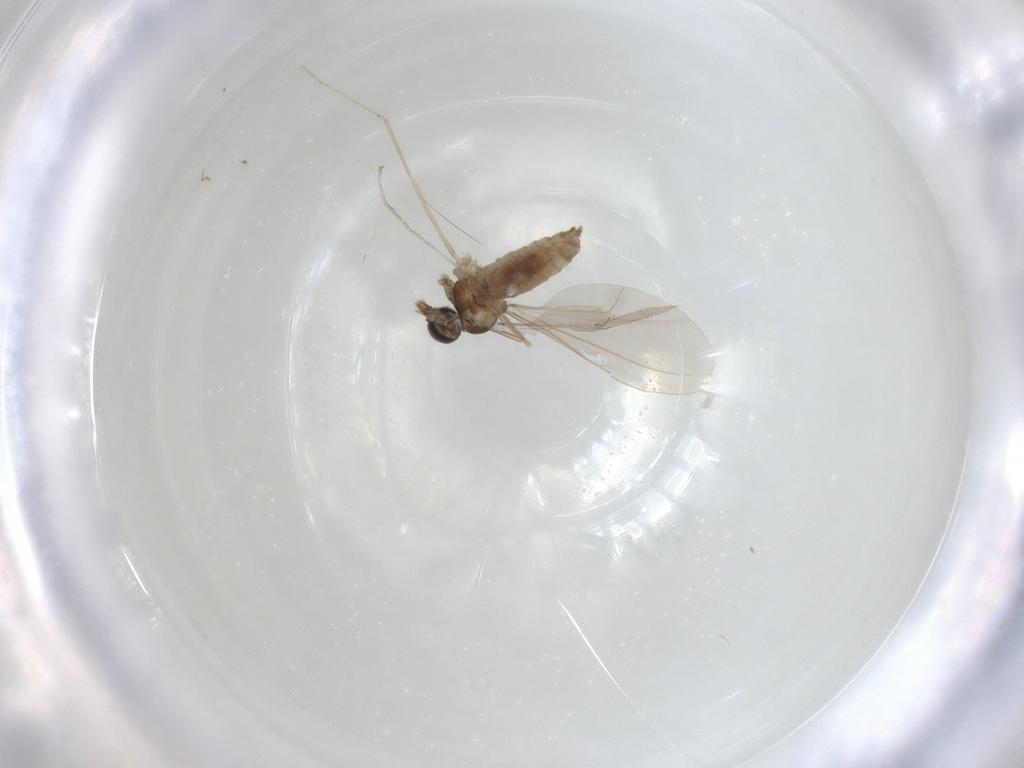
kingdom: Animalia
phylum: Arthropoda
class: Insecta
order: Diptera
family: Cecidomyiidae
